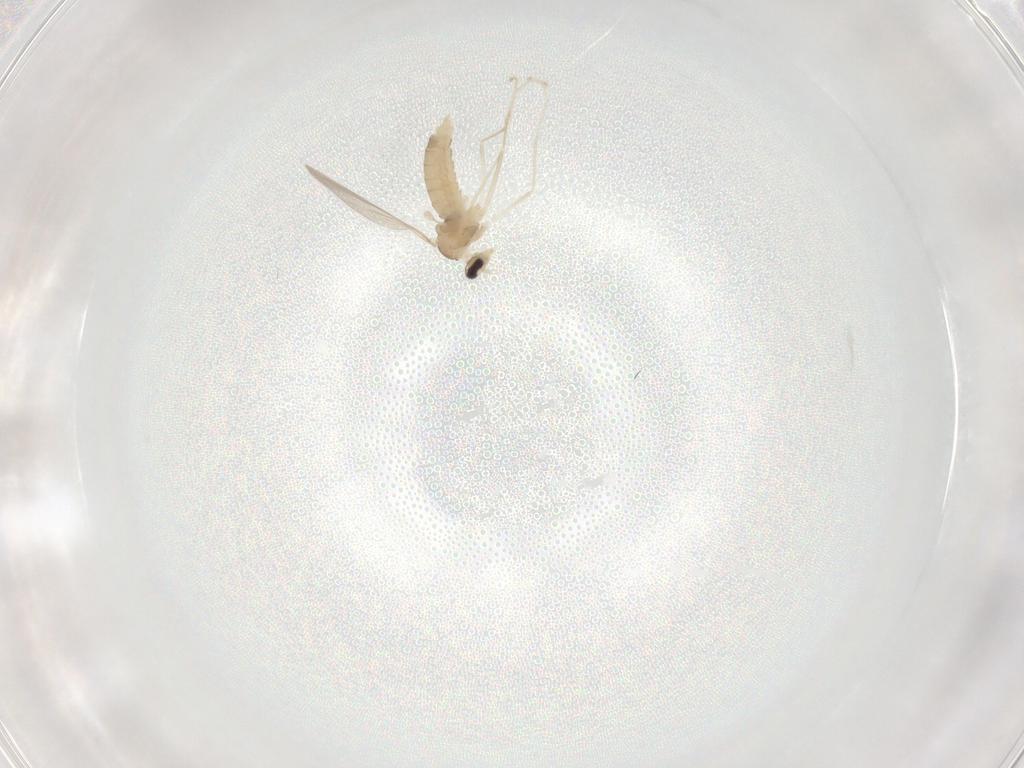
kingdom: Animalia
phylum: Arthropoda
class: Insecta
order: Diptera
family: Cecidomyiidae
